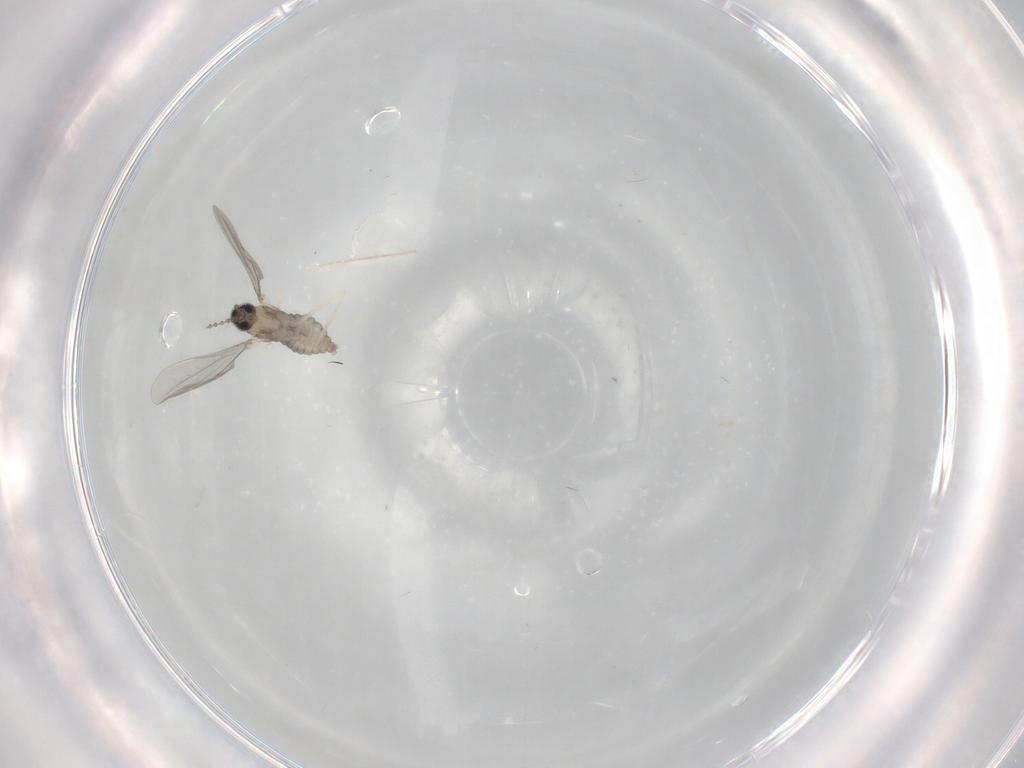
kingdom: Animalia
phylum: Arthropoda
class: Insecta
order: Diptera
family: Cecidomyiidae
